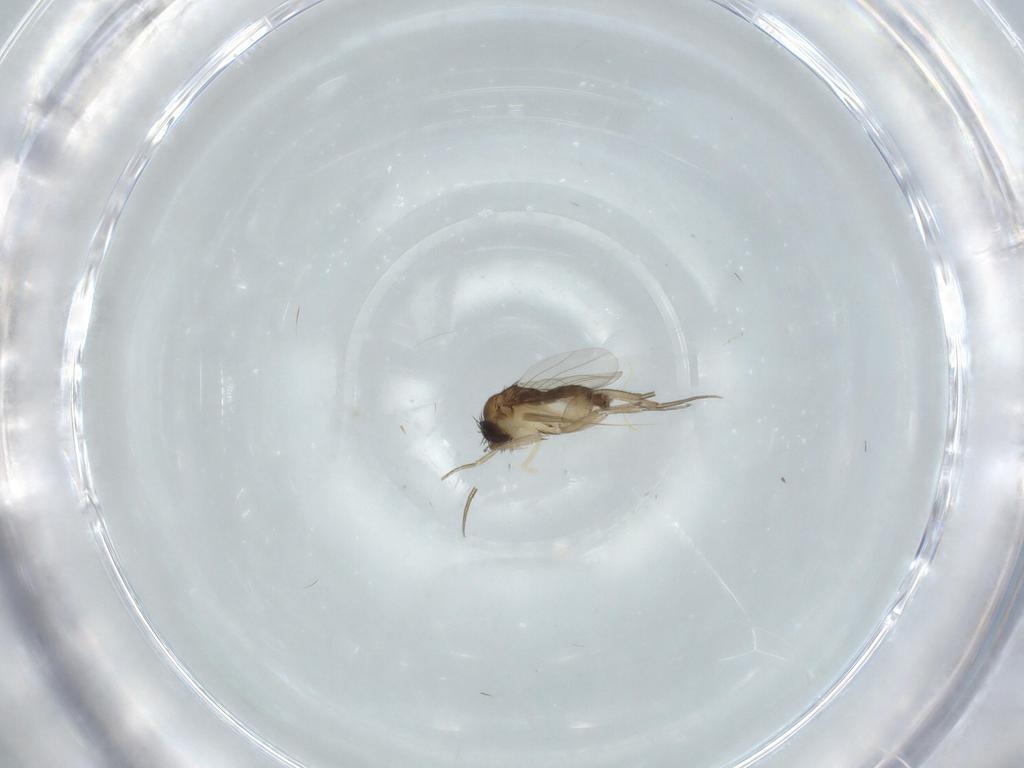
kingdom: Animalia
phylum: Arthropoda
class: Insecta
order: Diptera
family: Phoridae
